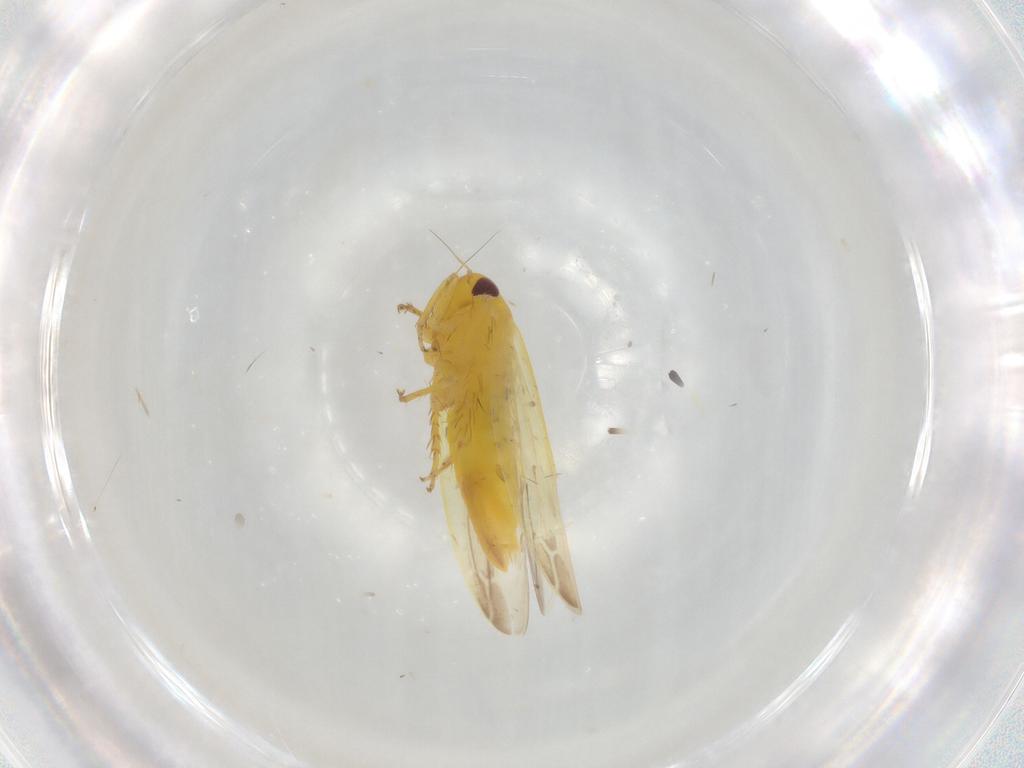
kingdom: Animalia
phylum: Arthropoda
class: Insecta
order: Hemiptera
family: Cicadellidae
